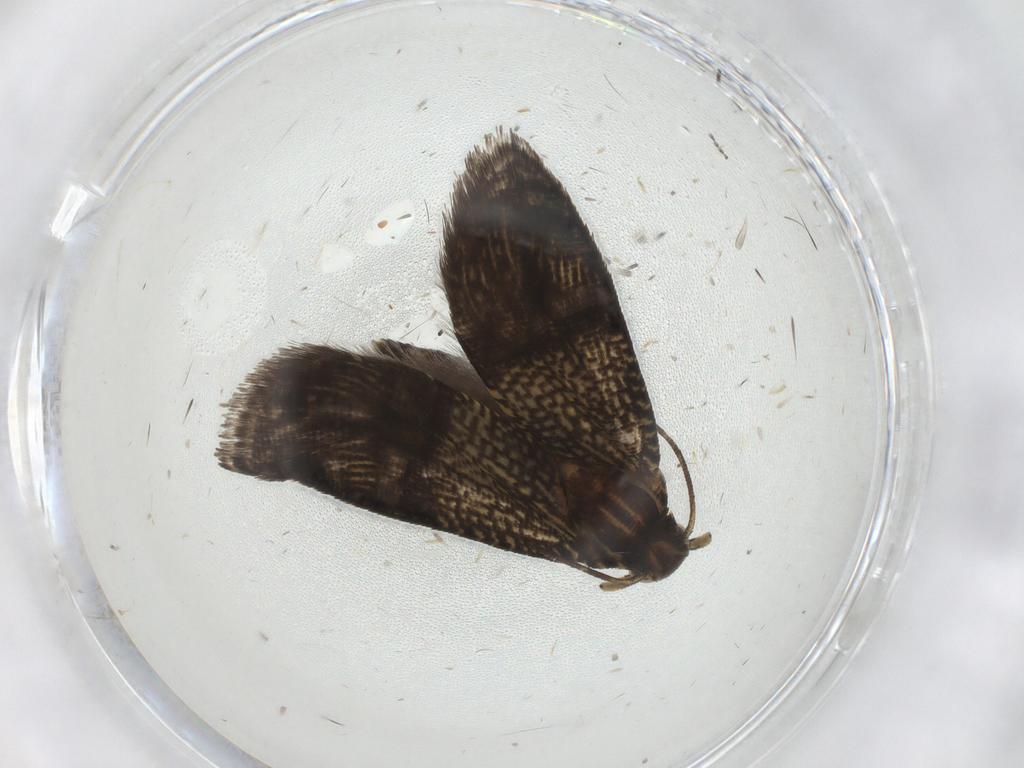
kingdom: Animalia
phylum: Arthropoda
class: Insecta
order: Lepidoptera
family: Geometridae
